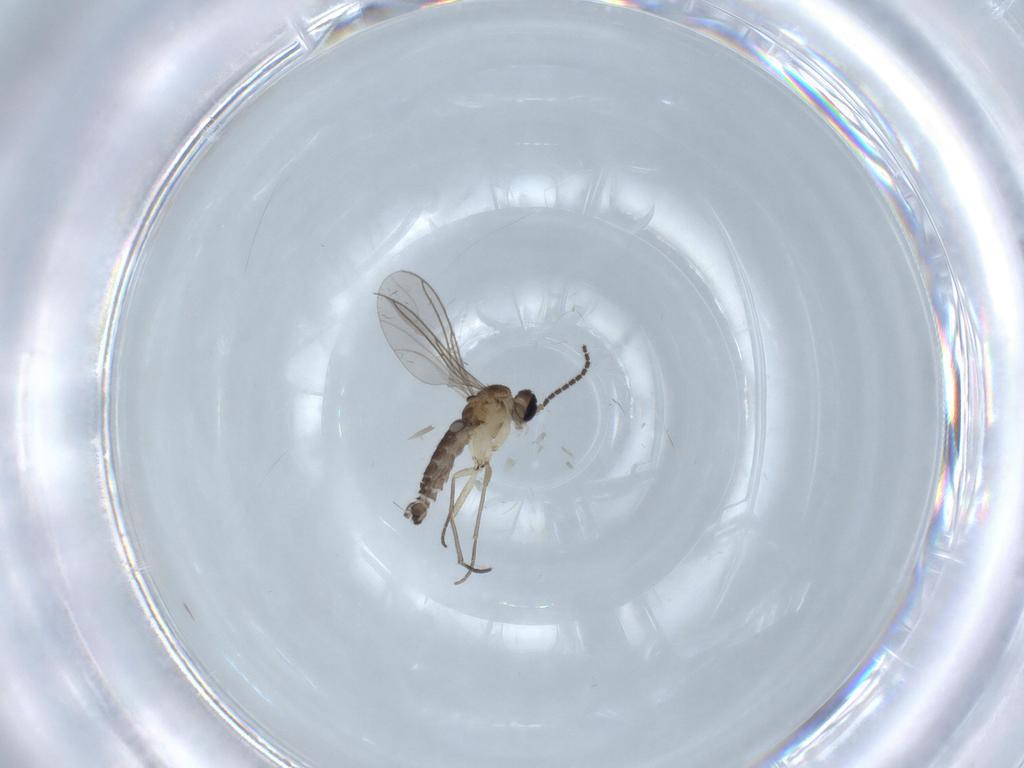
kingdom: Animalia
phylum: Arthropoda
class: Insecta
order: Diptera
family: Sciaridae
